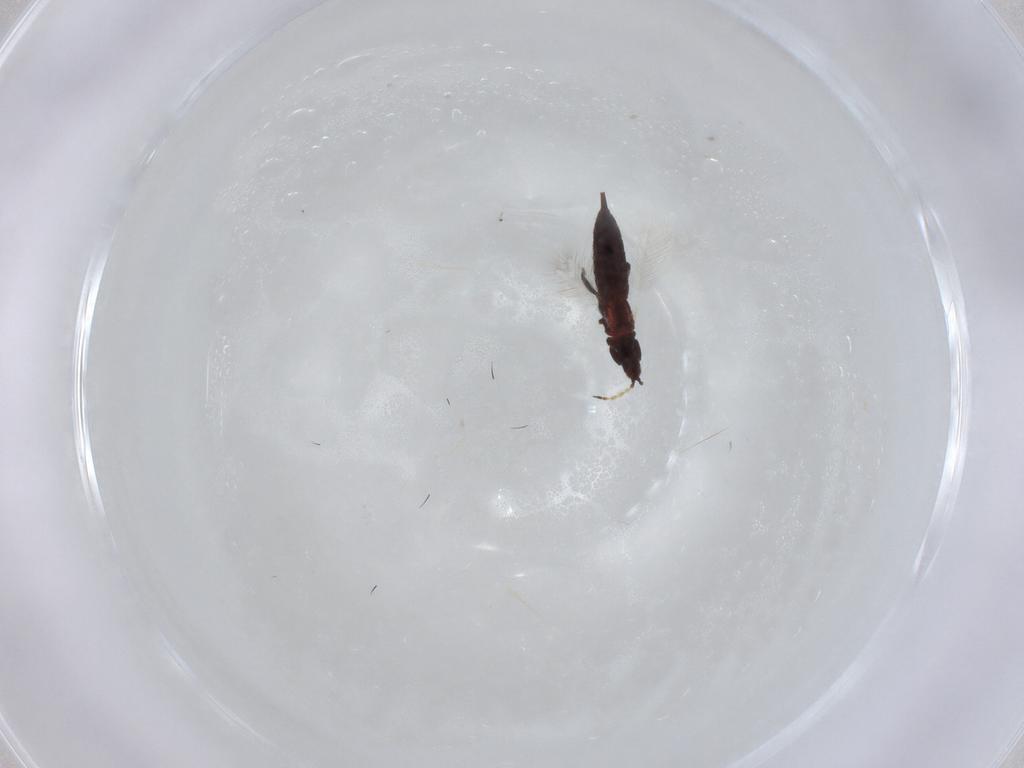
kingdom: Animalia
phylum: Arthropoda
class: Insecta
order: Thysanoptera
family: Phlaeothripidae
